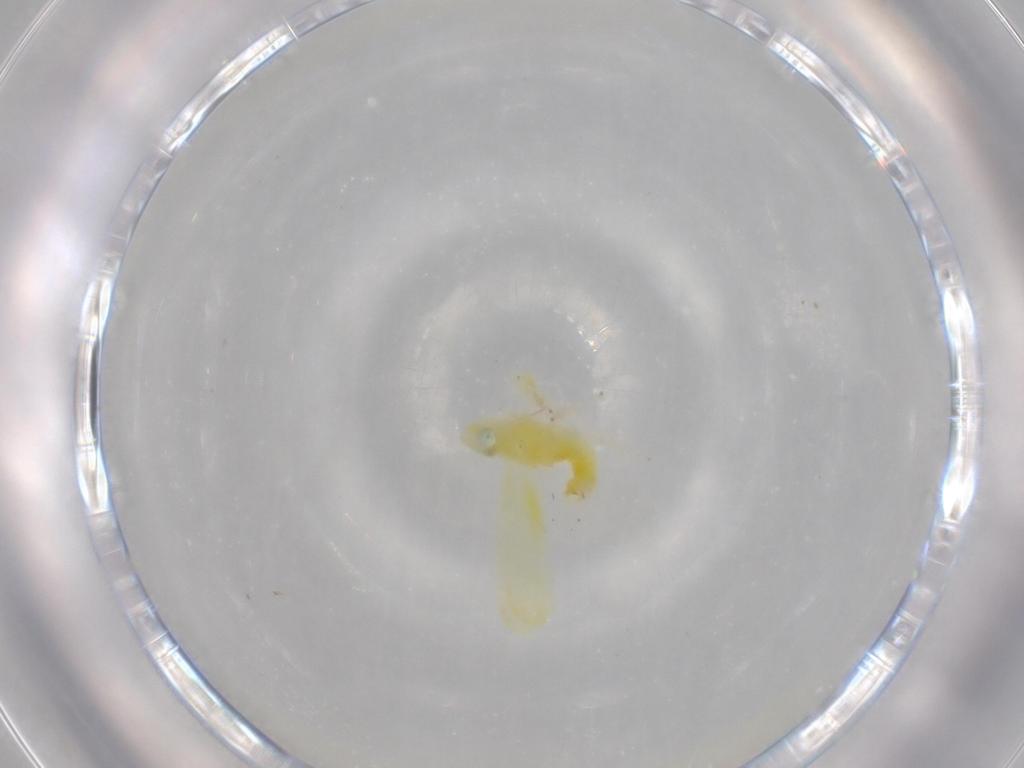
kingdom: Animalia
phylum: Arthropoda
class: Insecta
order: Hemiptera
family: Cicadellidae
